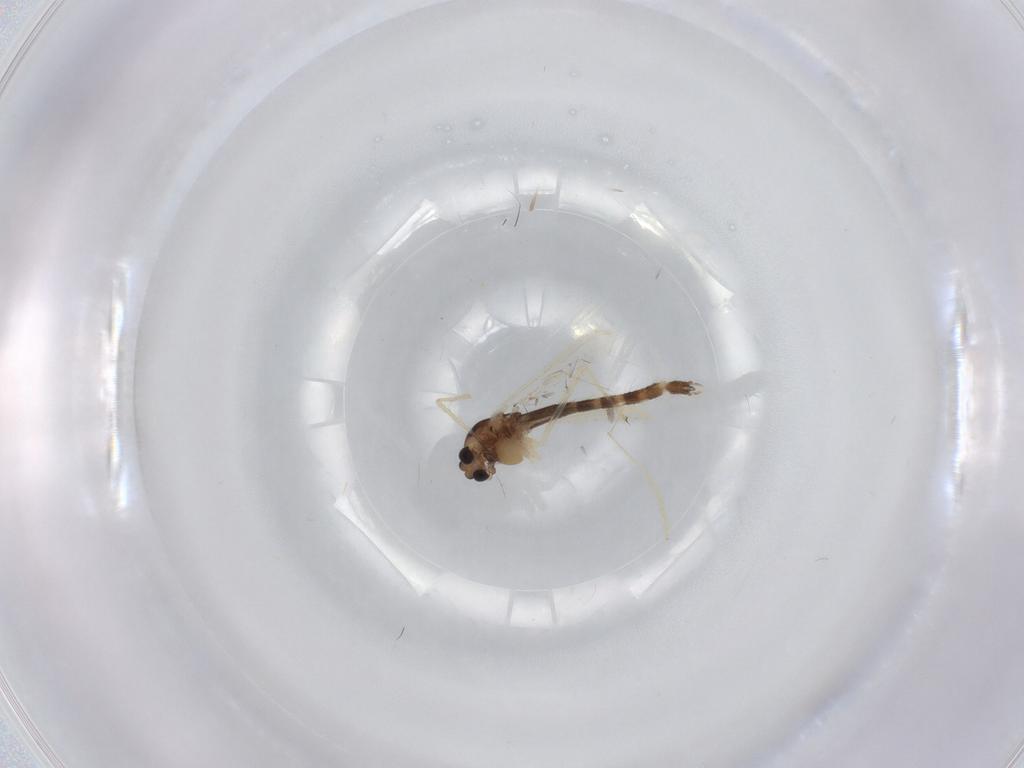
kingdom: Animalia
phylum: Arthropoda
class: Insecta
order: Diptera
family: Chironomidae
